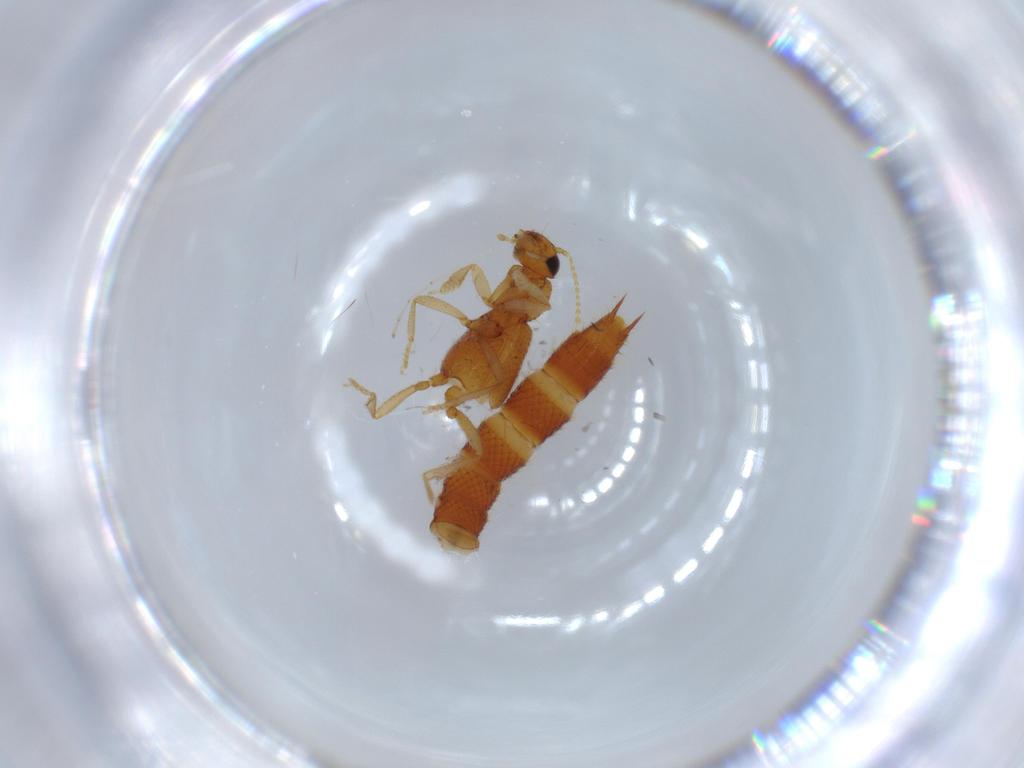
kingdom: Animalia
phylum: Arthropoda
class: Insecta
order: Coleoptera
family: Staphylinidae
